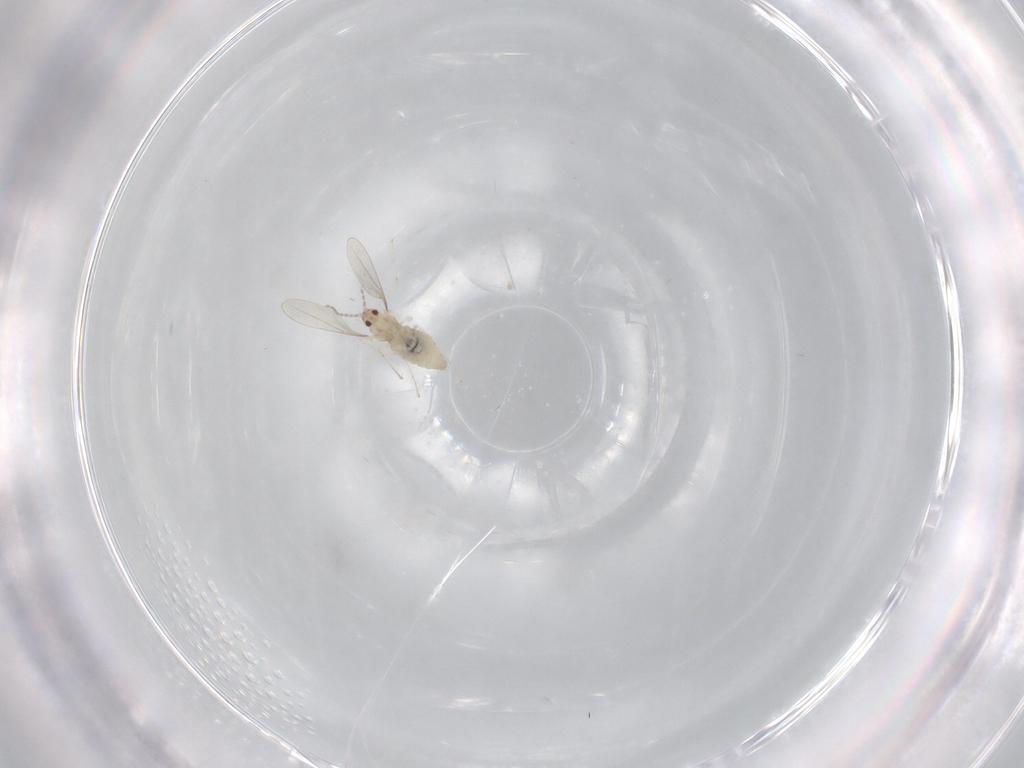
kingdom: Animalia
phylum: Arthropoda
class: Insecta
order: Diptera
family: Cecidomyiidae
